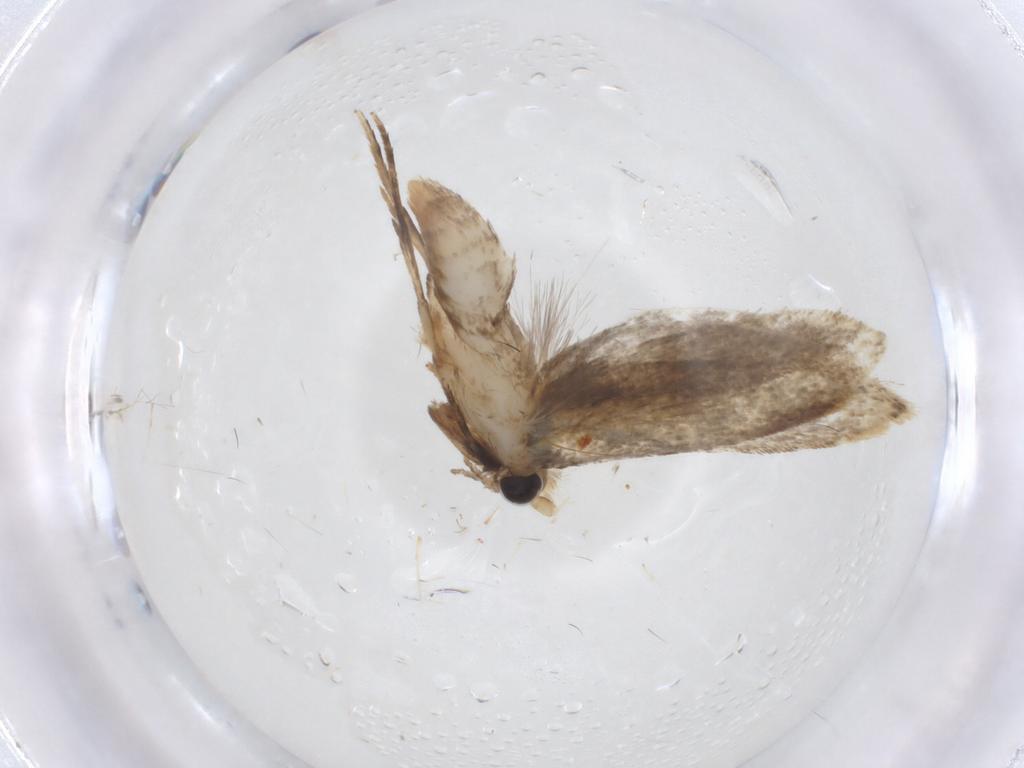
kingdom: Animalia
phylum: Arthropoda
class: Insecta
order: Lepidoptera
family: Tineidae
